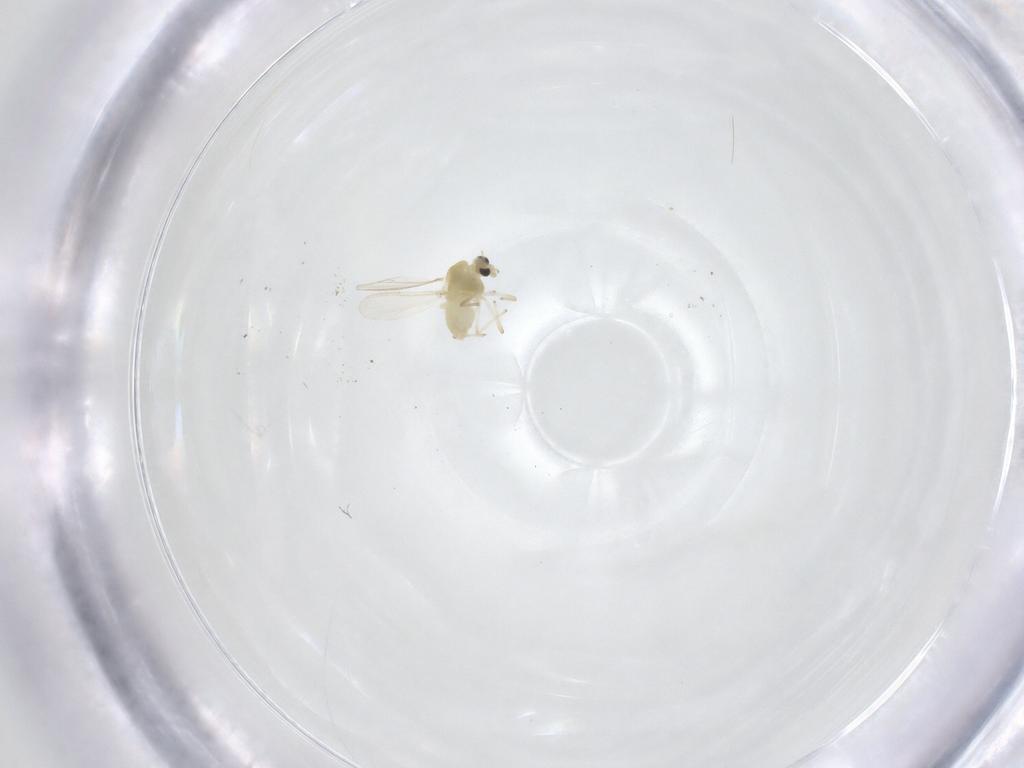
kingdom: Animalia
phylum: Arthropoda
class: Insecta
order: Diptera
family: Chironomidae
